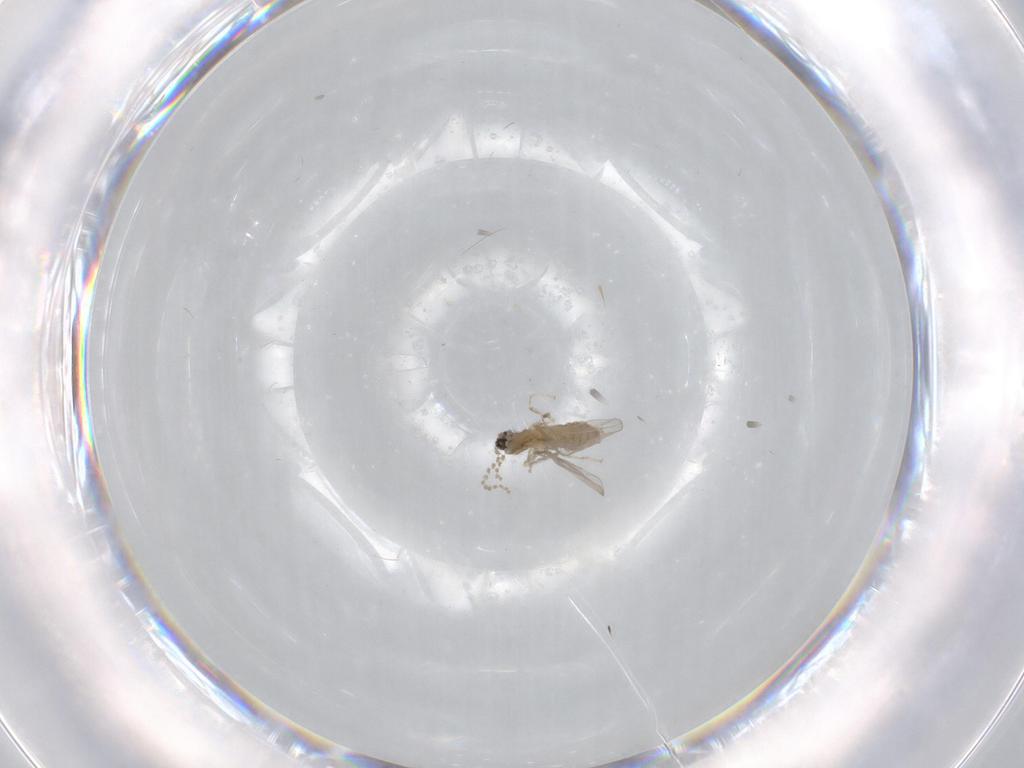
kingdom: Animalia
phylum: Arthropoda
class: Insecta
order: Diptera
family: Cecidomyiidae
